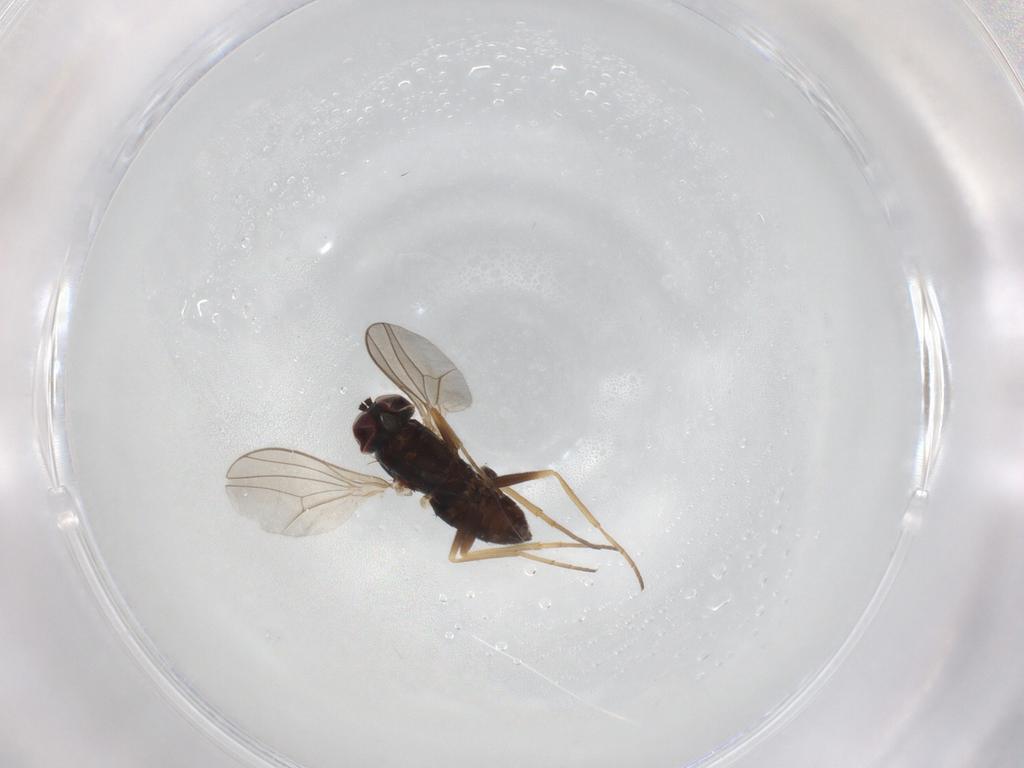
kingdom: Animalia
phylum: Arthropoda
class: Insecta
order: Diptera
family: Dolichopodidae
